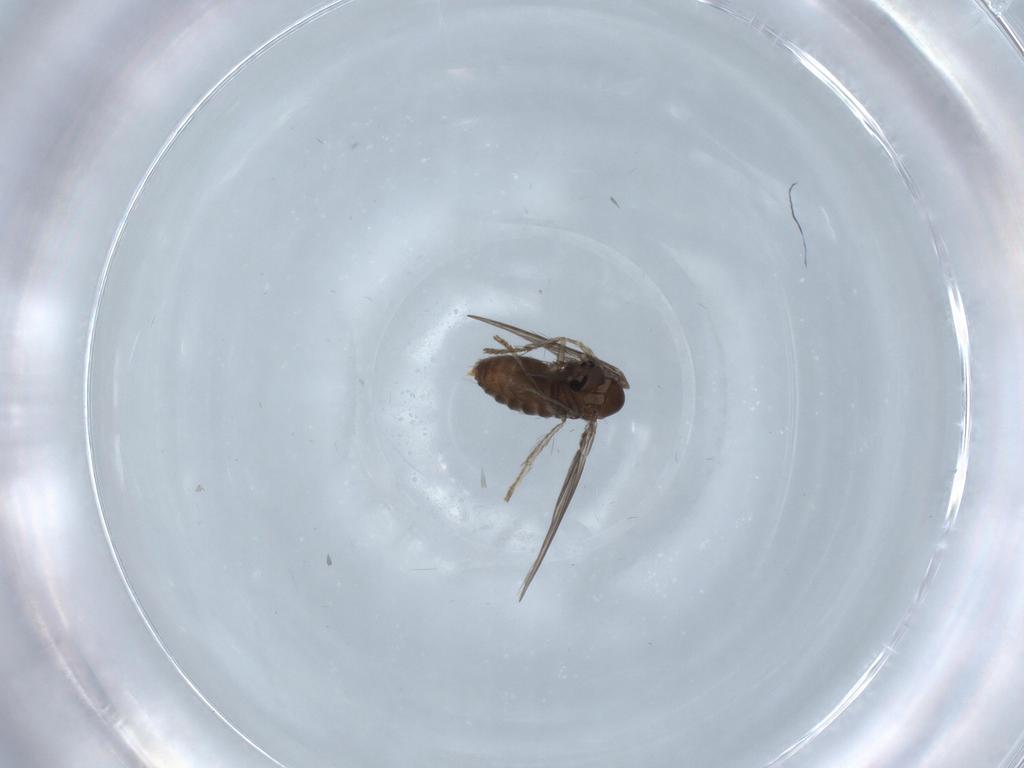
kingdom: Animalia
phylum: Arthropoda
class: Insecta
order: Diptera
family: Psychodidae
